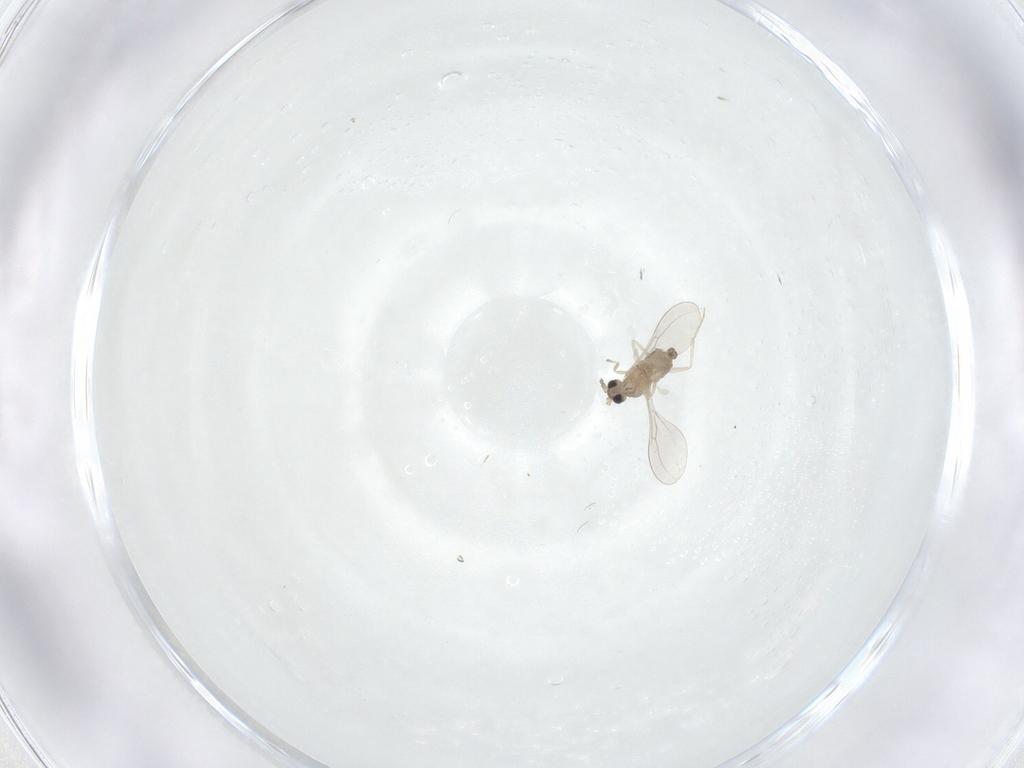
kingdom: Animalia
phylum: Arthropoda
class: Insecta
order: Diptera
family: Cecidomyiidae
